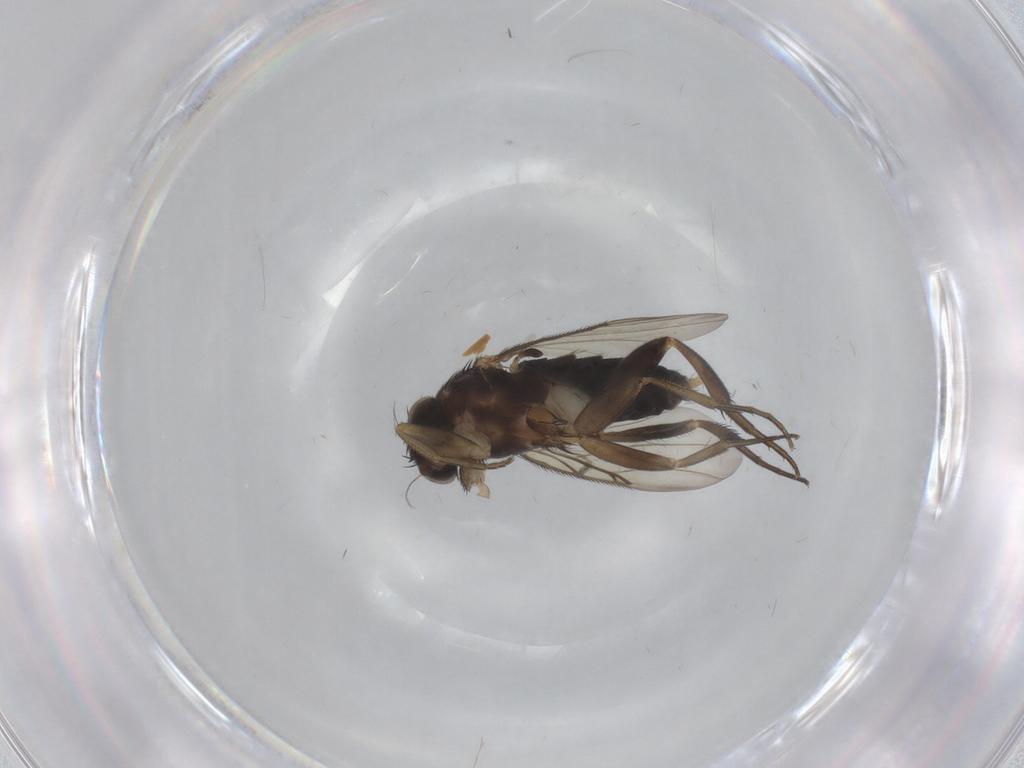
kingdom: Animalia
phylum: Arthropoda
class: Insecta
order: Diptera
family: Phoridae
